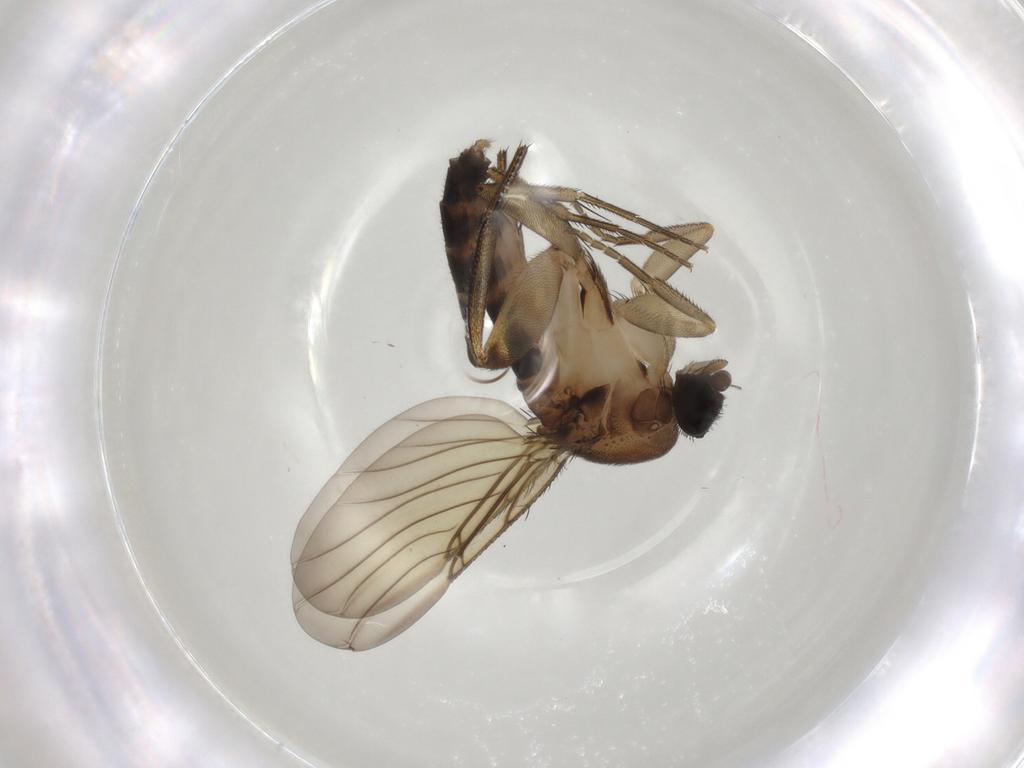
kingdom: Animalia
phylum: Arthropoda
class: Insecta
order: Diptera
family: Phoridae
